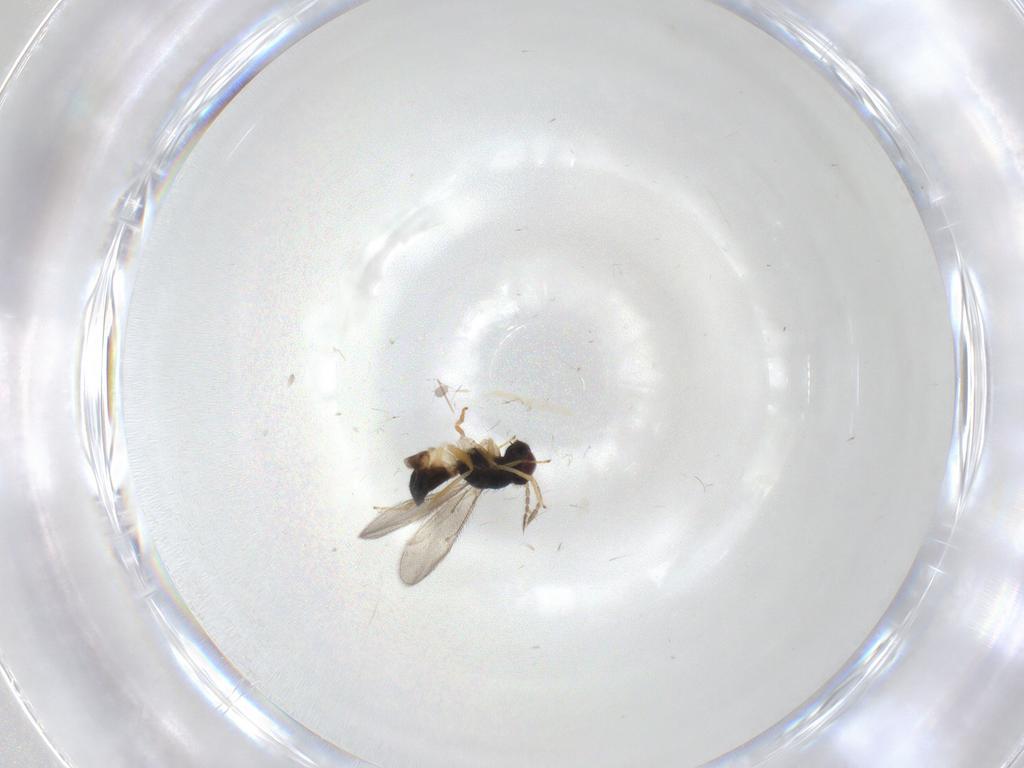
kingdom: Animalia
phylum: Arthropoda
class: Insecta
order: Hymenoptera
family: Eulophidae
